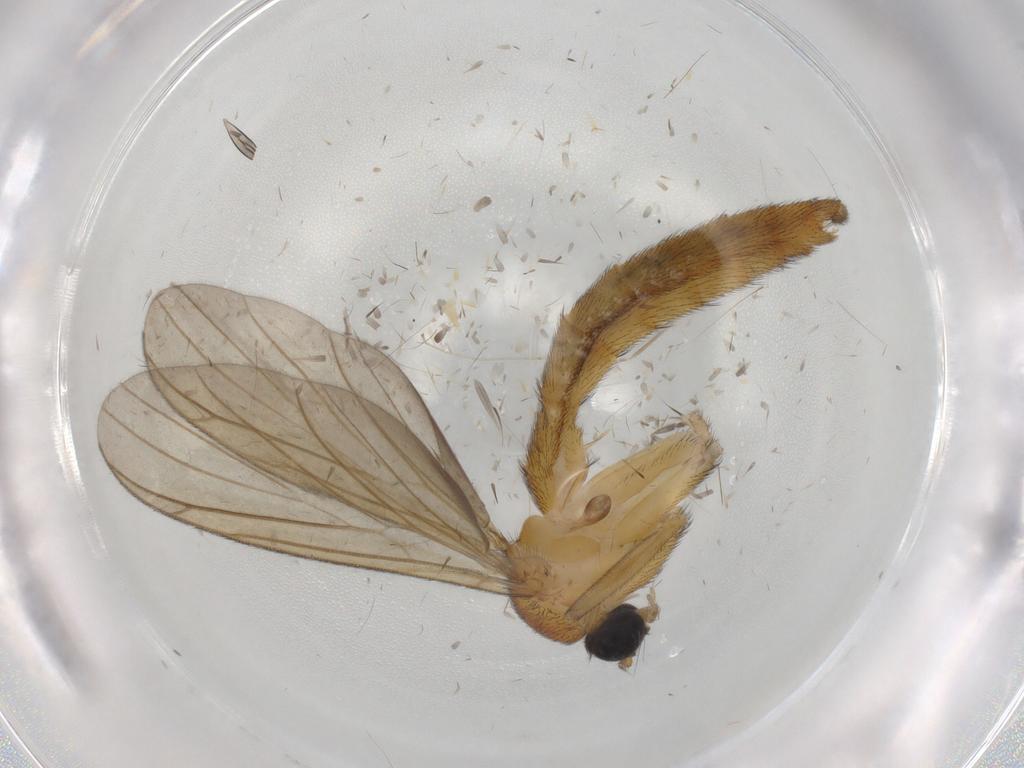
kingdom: Animalia
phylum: Arthropoda
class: Insecta
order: Diptera
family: Cecidomyiidae
